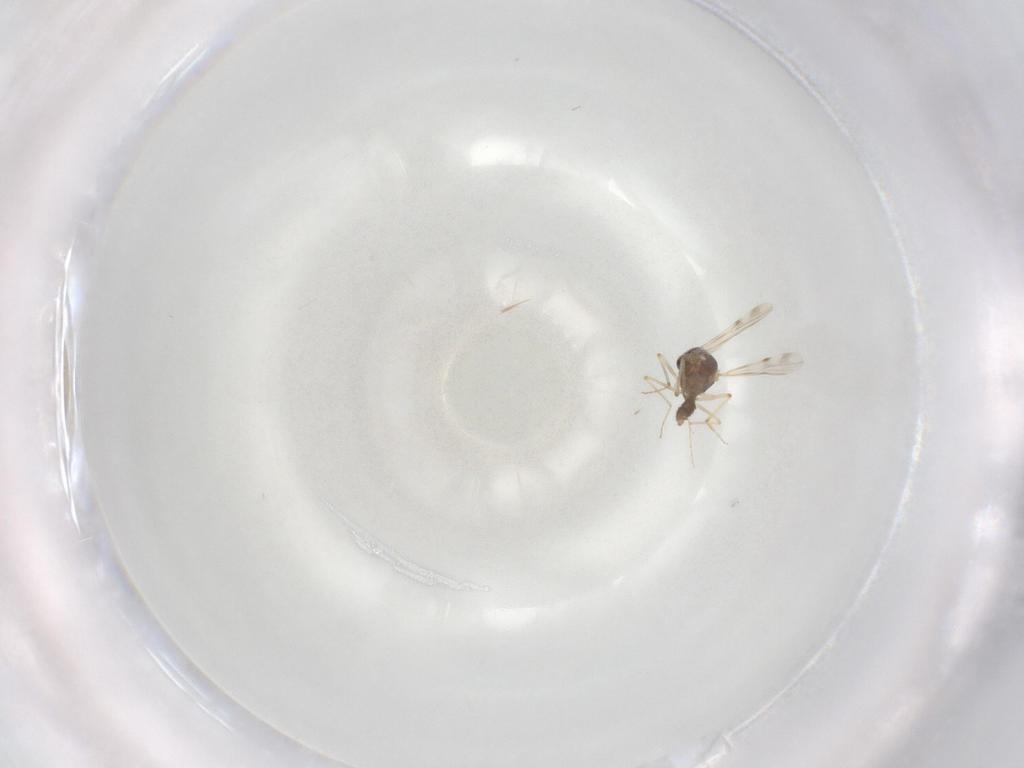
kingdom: Animalia
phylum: Arthropoda
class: Insecta
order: Diptera
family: Ceratopogonidae
